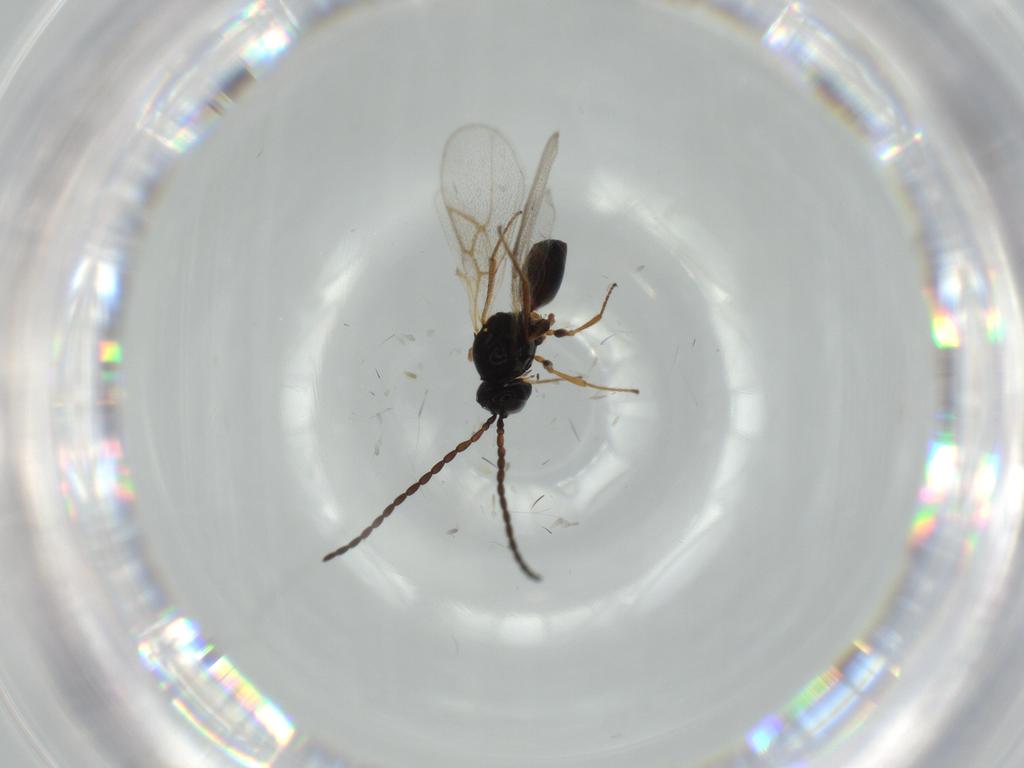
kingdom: Animalia
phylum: Arthropoda
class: Insecta
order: Hymenoptera
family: Figitidae
